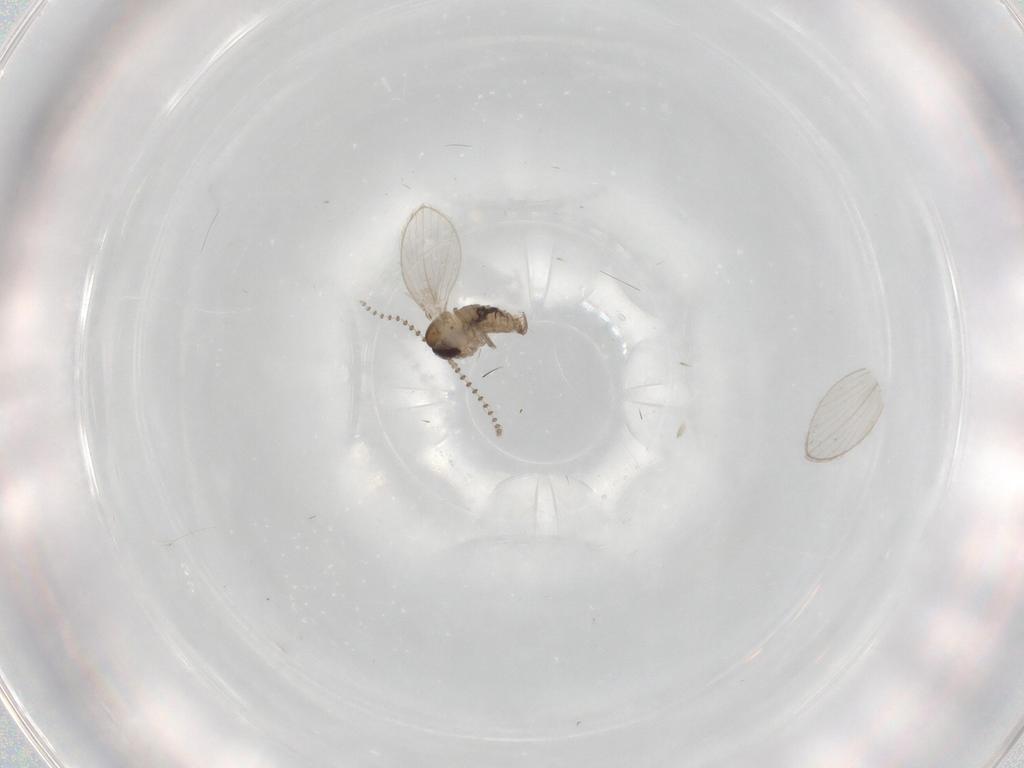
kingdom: Animalia
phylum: Arthropoda
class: Insecta
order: Diptera
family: Psychodidae
